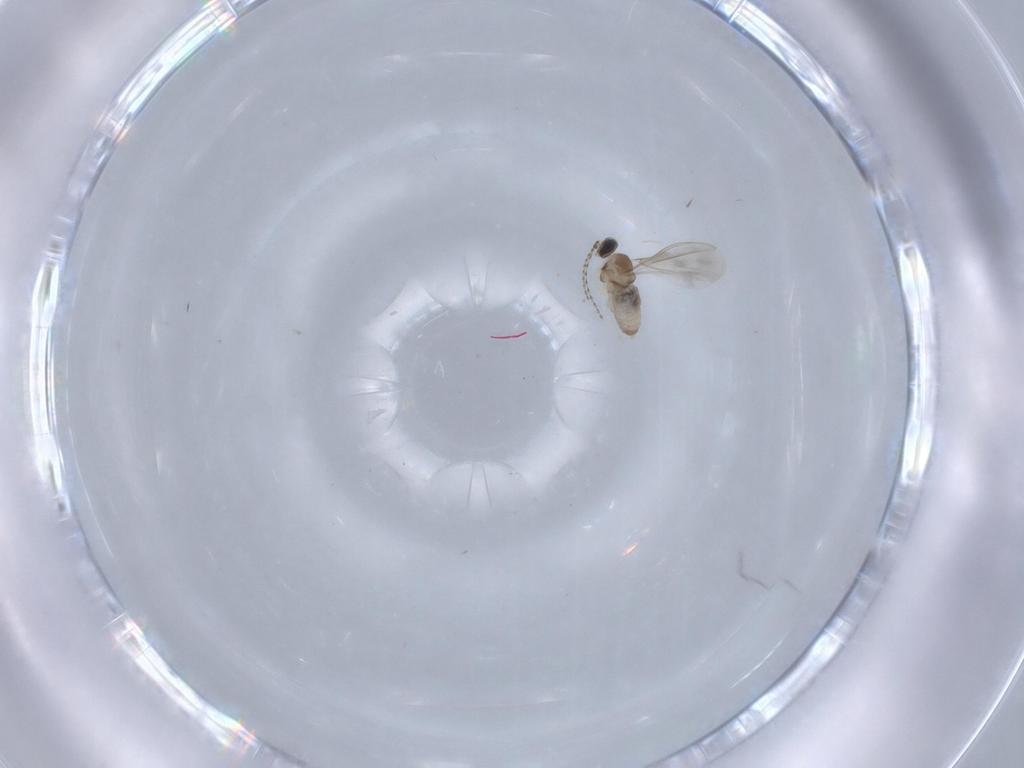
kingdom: Animalia
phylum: Arthropoda
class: Insecta
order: Diptera
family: Cecidomyiidae
